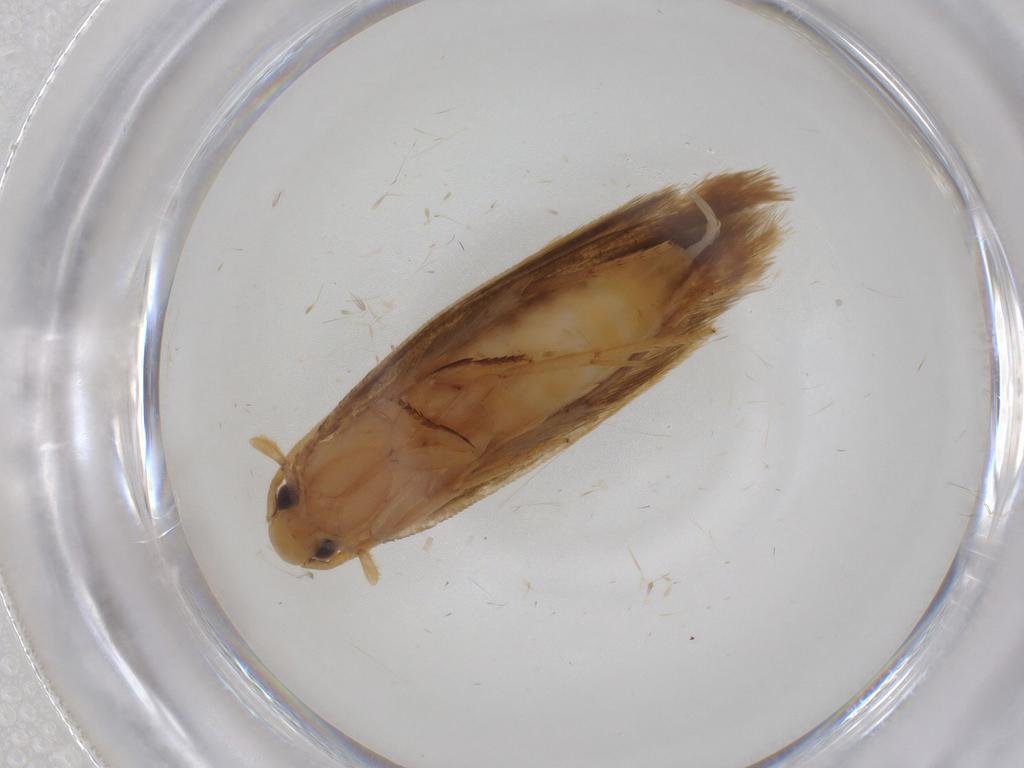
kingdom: Animalia
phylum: Arthropoda
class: Insecta
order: Lepidoptera
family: Tineidae
